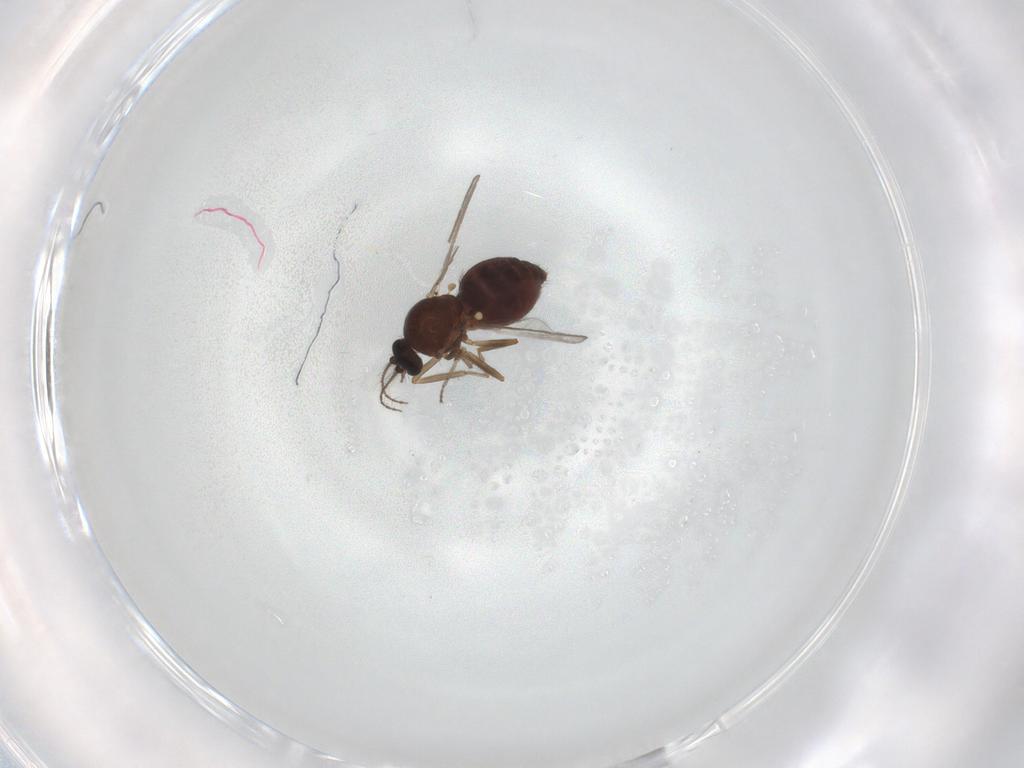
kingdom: Animalia
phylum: Arthropoda
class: Insecta
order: Diptera
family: Ceratopogonidae
